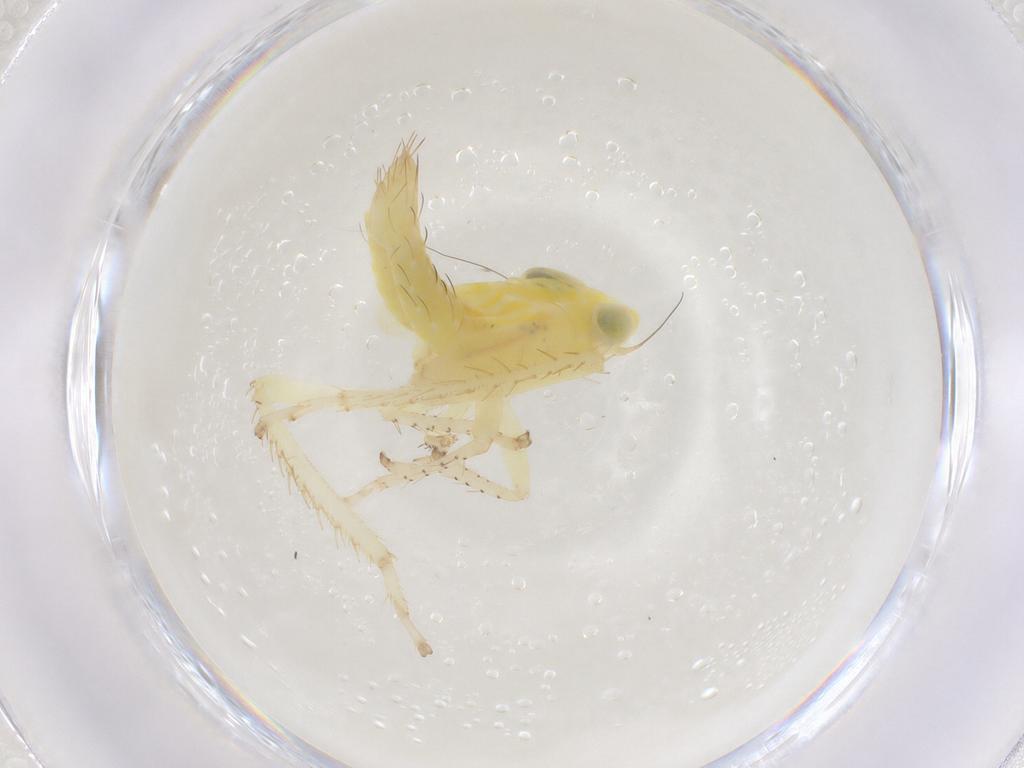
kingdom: Animalia
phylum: Arthropoda
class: Insecta
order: Hemiptera
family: Cicadellidae
